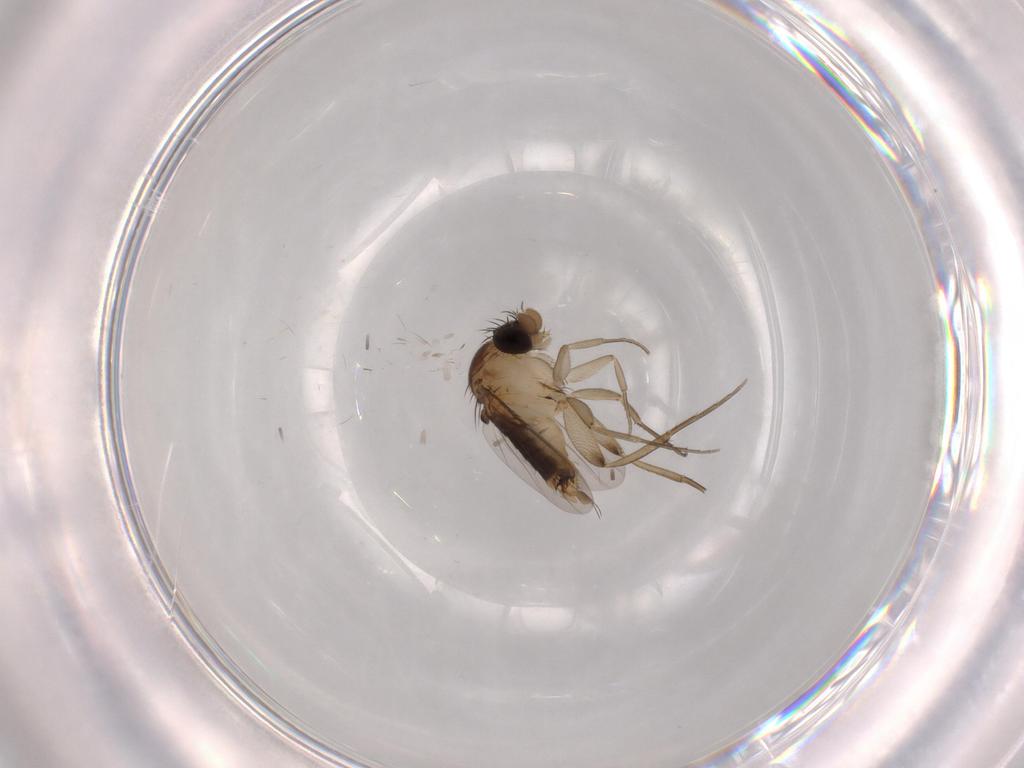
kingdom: Animalia
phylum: Arthropoda
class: Insecta
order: Diptera
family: Phoridae
